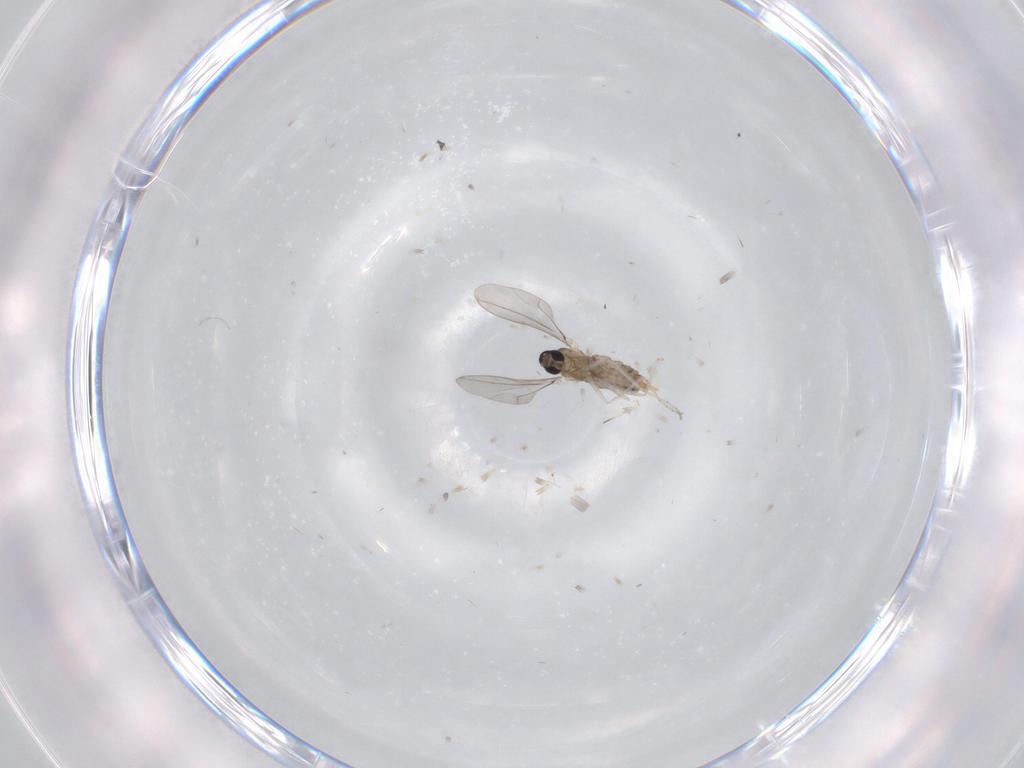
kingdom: Animalia
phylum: Arthropoda
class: Insecta
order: Diptera
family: Cecidomyiidae
